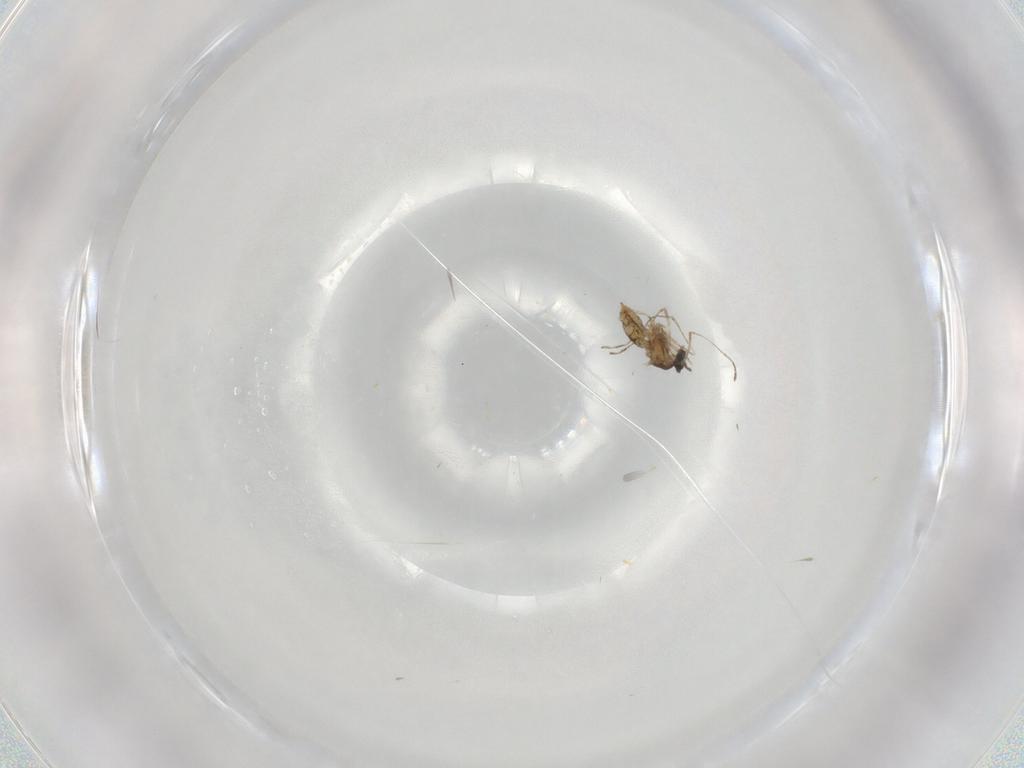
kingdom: Animalia
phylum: Arthropoda
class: Insecta
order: Diptera
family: Cecidomyiidae
